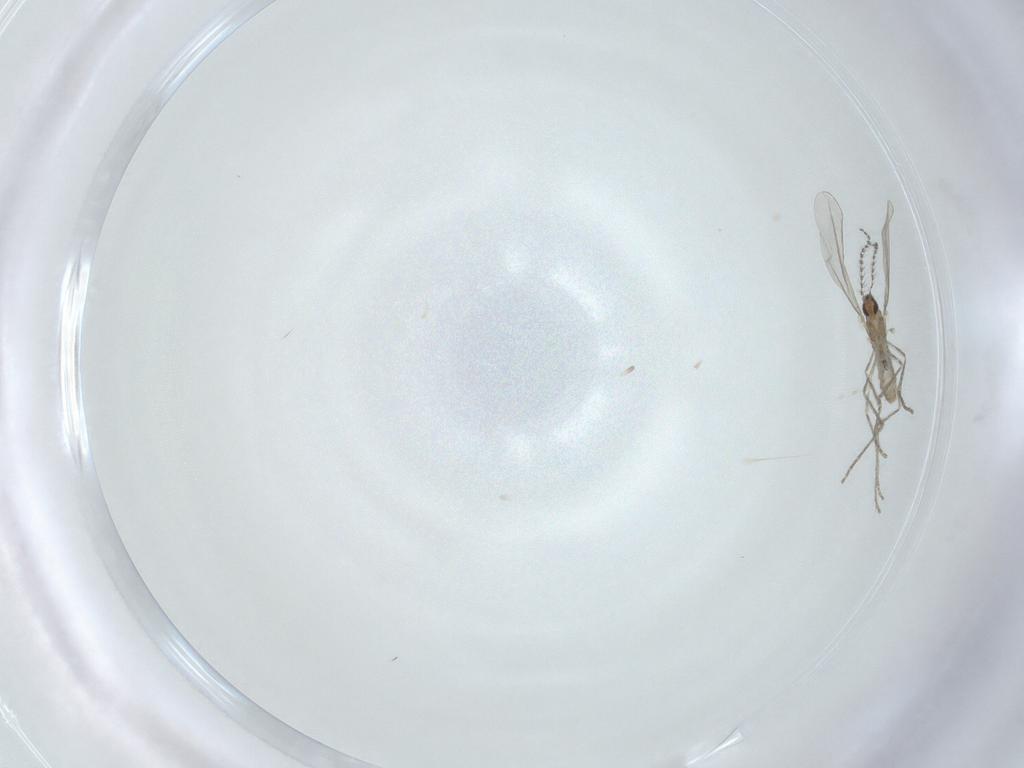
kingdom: Animalia
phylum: Arthropoda
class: Insecta
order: Diptera
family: Cecidomyiidae
